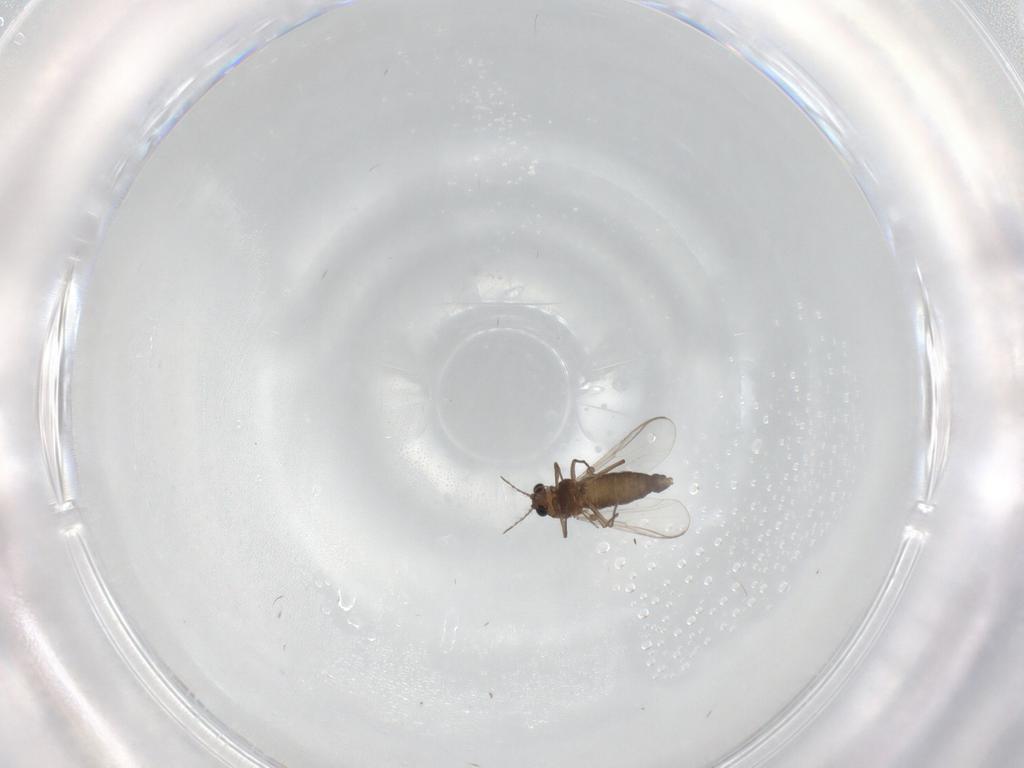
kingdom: Animalia
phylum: Arthropoda
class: Insecta
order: Diptera
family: Chironomidae
